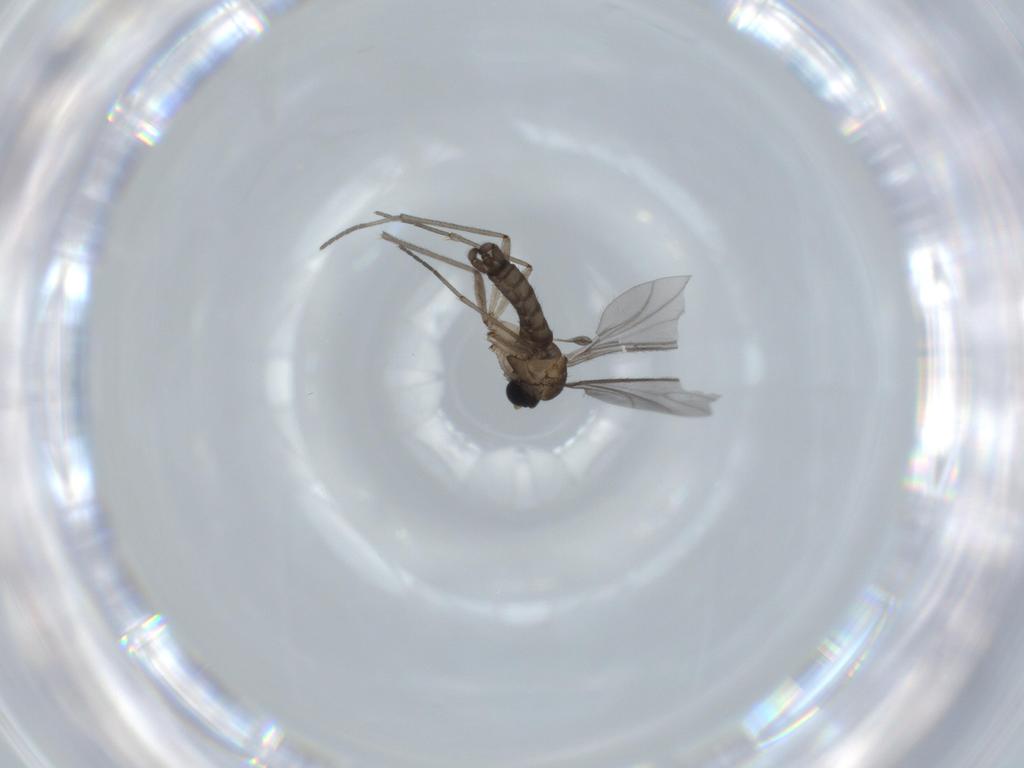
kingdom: Animalia
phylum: Arthropoda
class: Insecta
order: Diptera
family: Sciaridae
